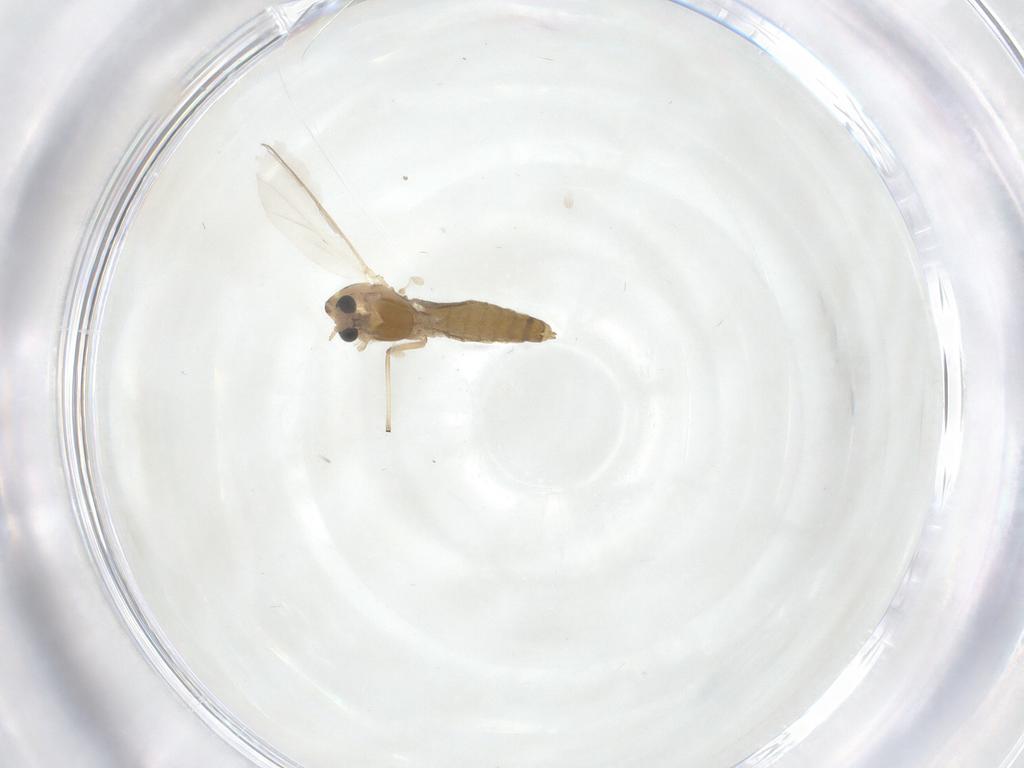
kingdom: Animalia
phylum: Arthropoda
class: Insecta
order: Diptera
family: Chironomidae
